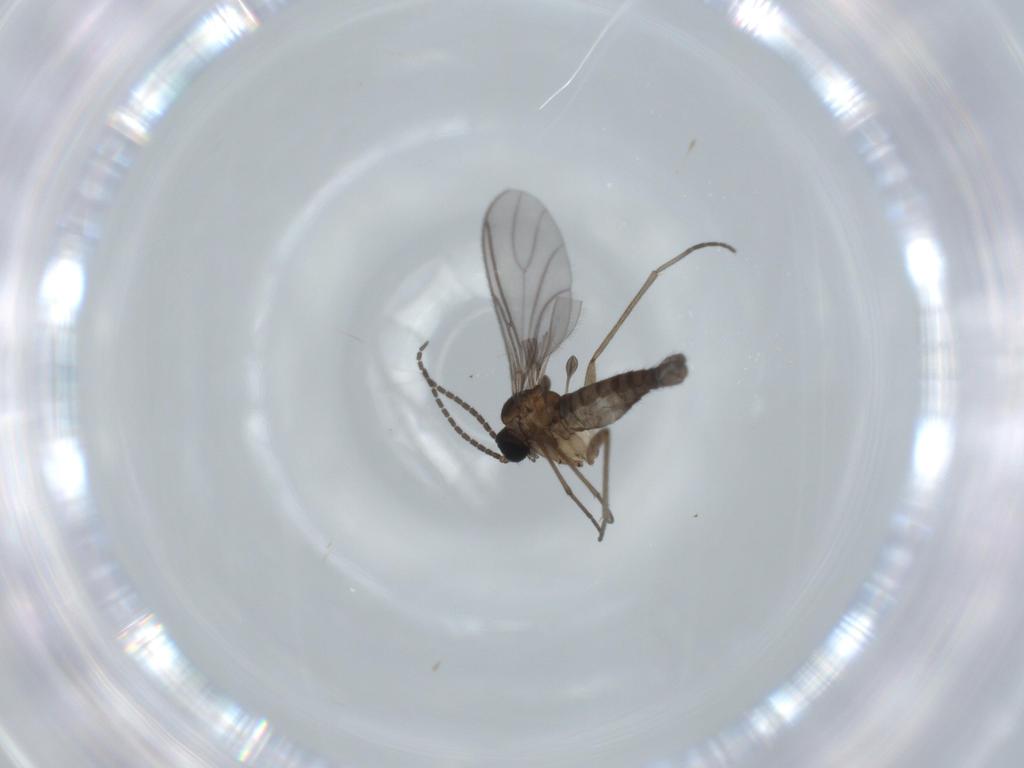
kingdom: Animalia
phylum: Arthropoda
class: Insecta
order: Diptera
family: Sciaridae
